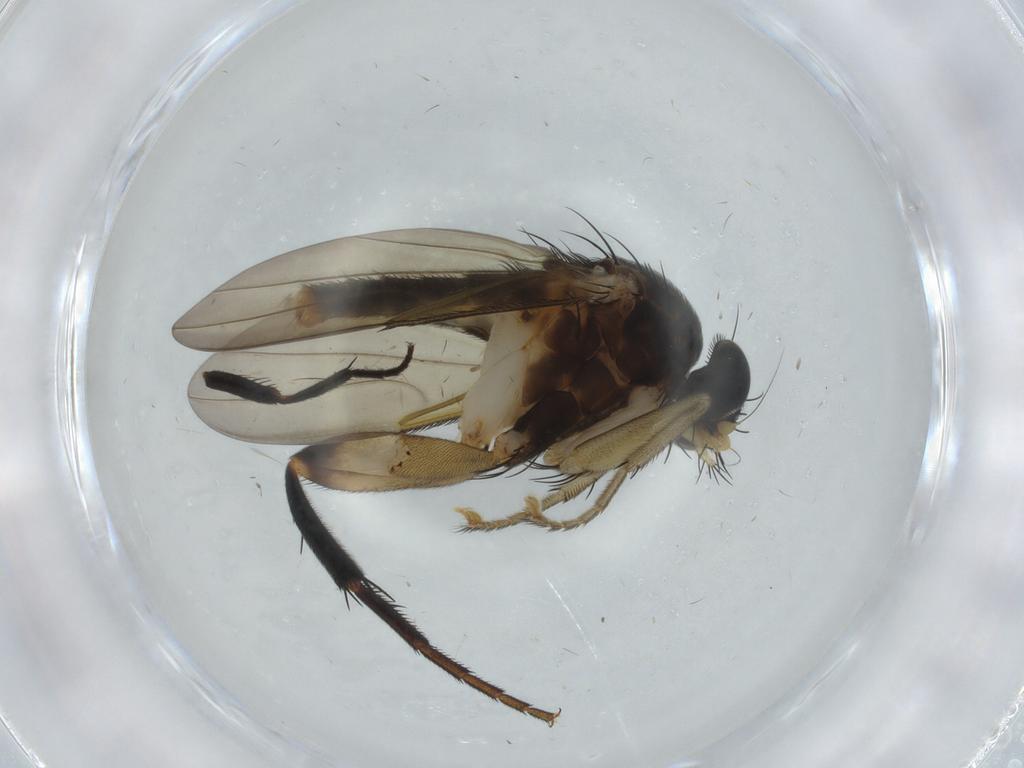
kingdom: Animalia
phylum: Arthropoda
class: Insecta
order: Diptera
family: Phoridae
